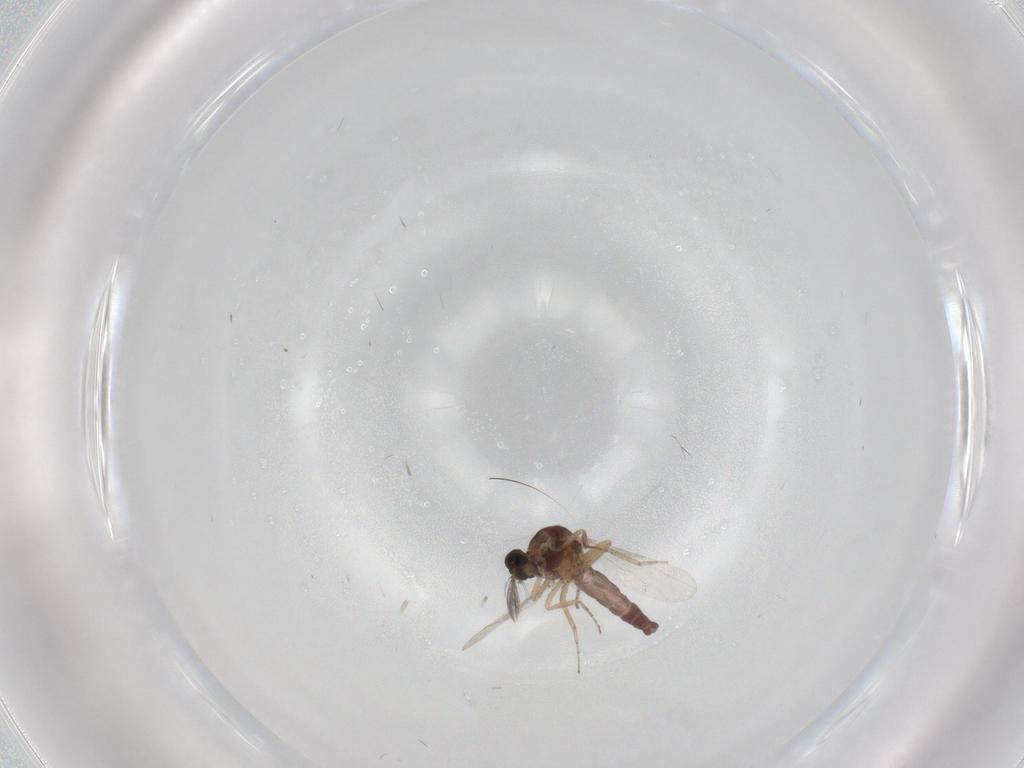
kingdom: Animalia
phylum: Arthropoda
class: Insecta
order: Diptera
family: Sciaridae
